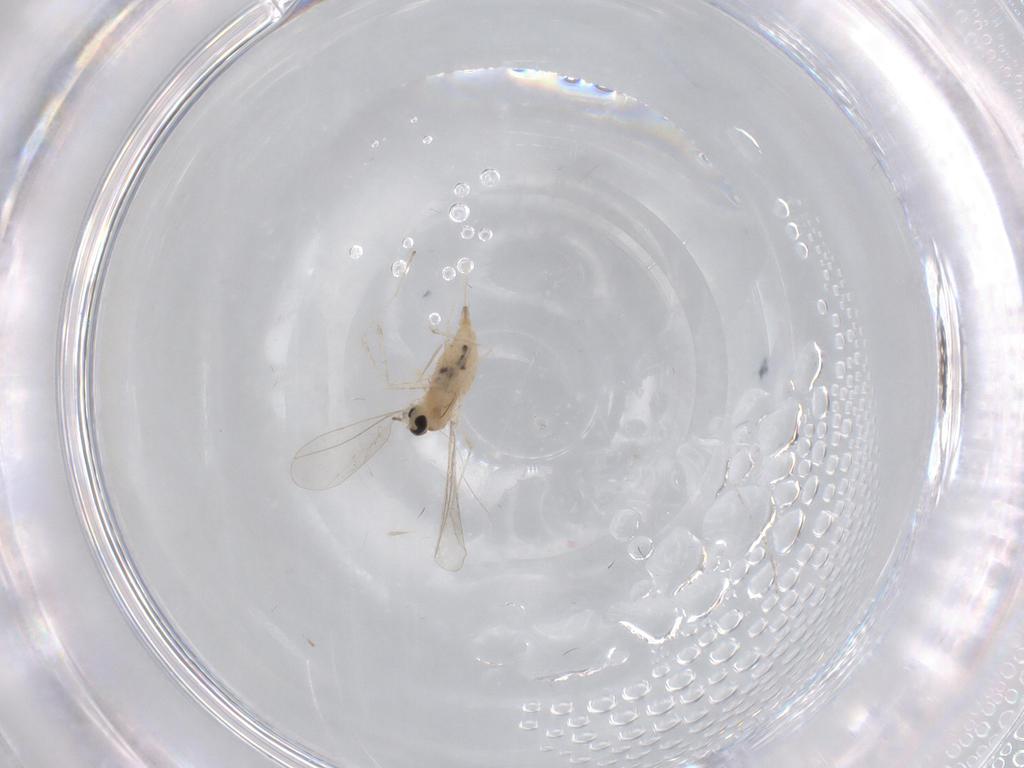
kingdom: Animalia
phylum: Arthropoda
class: Insecta
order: Diptera
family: Cecidomyiidae
